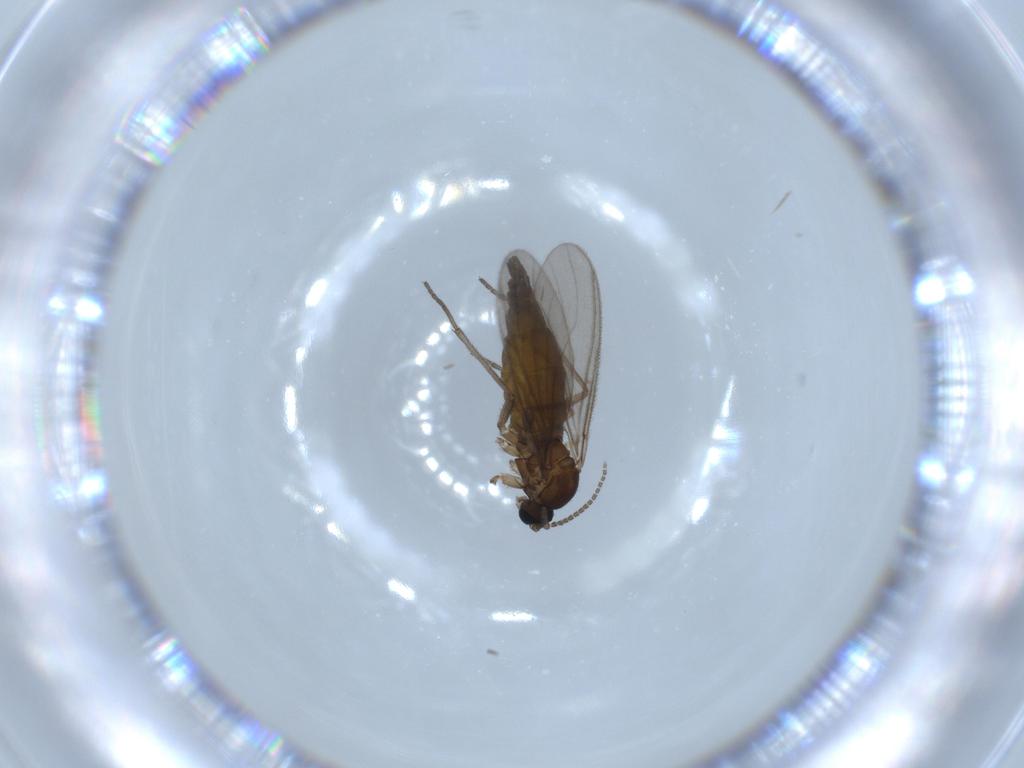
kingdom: Animalia
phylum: Arthropoda
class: Insecta
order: Diptera
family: Sciaridae
